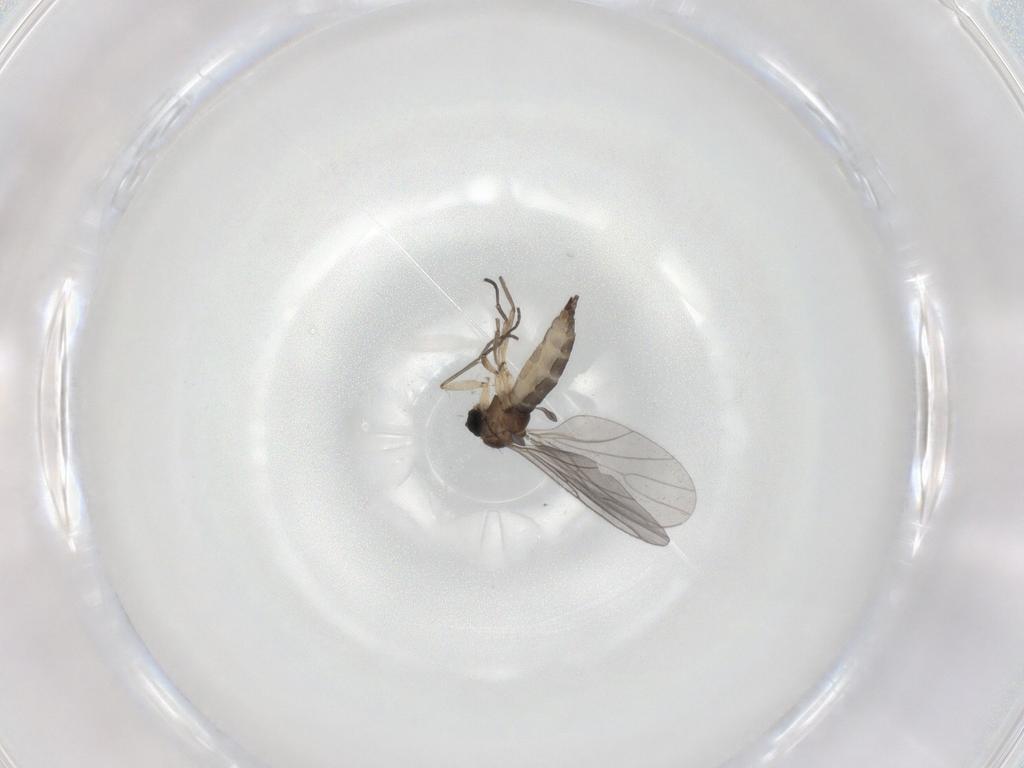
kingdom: Animalia
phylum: Arthropoda
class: Insecta
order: Diptera
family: Sciaridae
